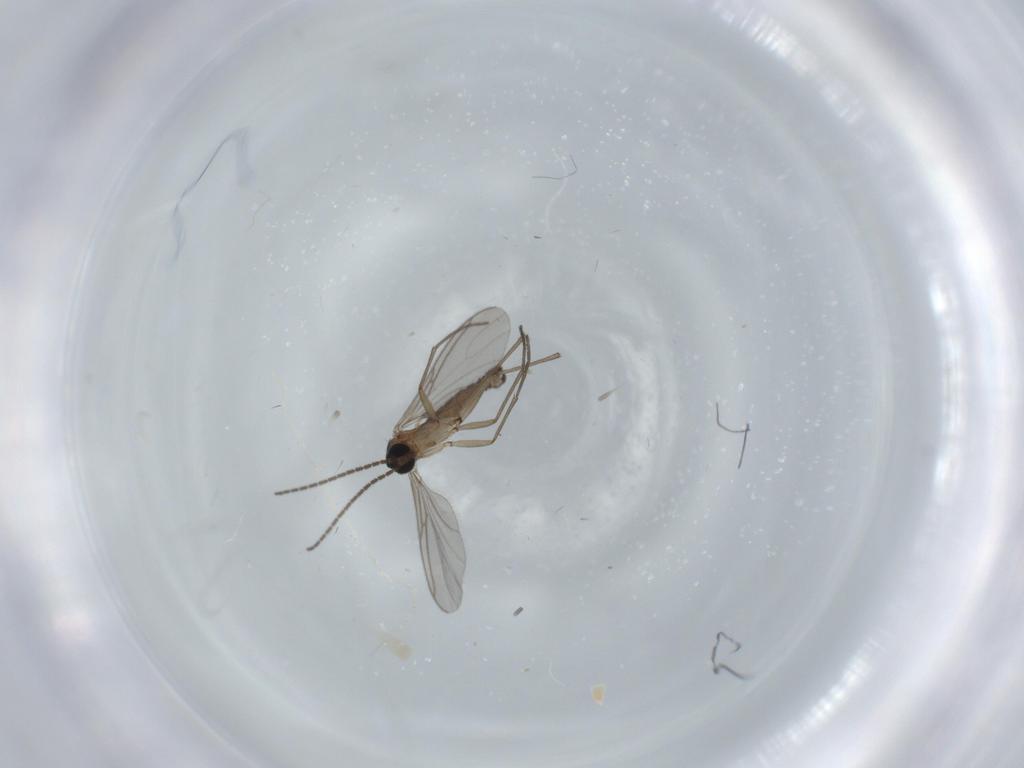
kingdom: Animalia
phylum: Arthropoda
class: Insecta
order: Diptera
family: Sciaridae
